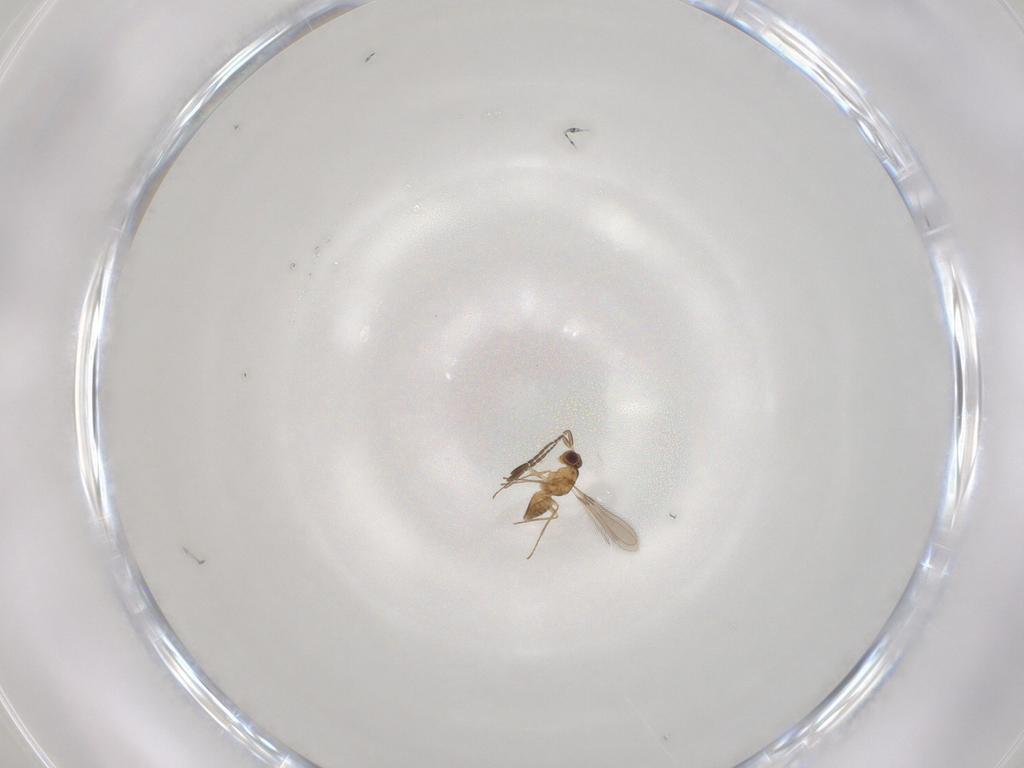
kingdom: Animalia
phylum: Arthropoda
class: Insecta
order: Hymenoptera
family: Mymaridae
